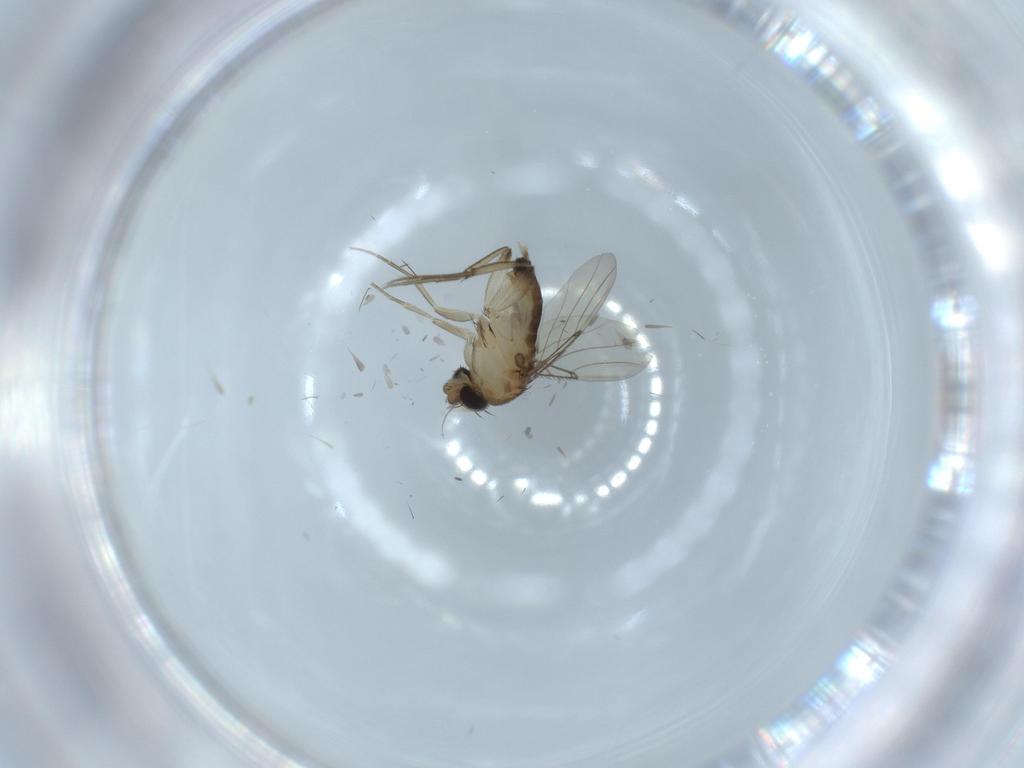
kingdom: Animalia
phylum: Arthropoda
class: Insecta
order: Diptera
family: Phoridae
